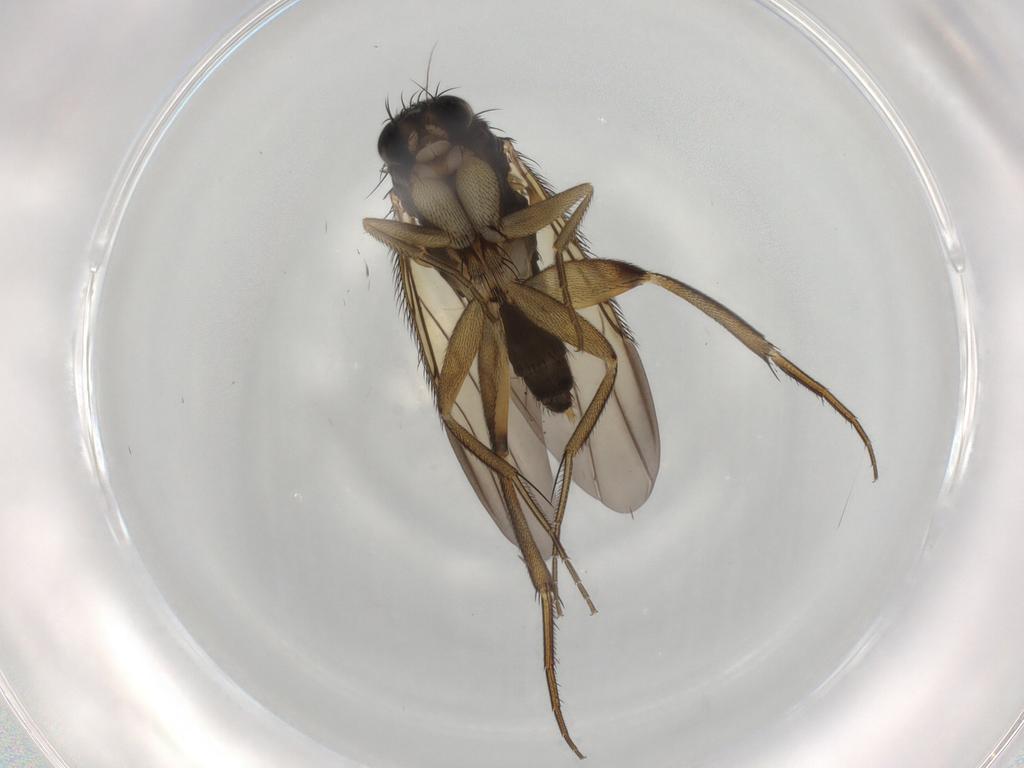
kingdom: Animalia
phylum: Arthropoda
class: Insecta
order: Diptera
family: Phoridae
